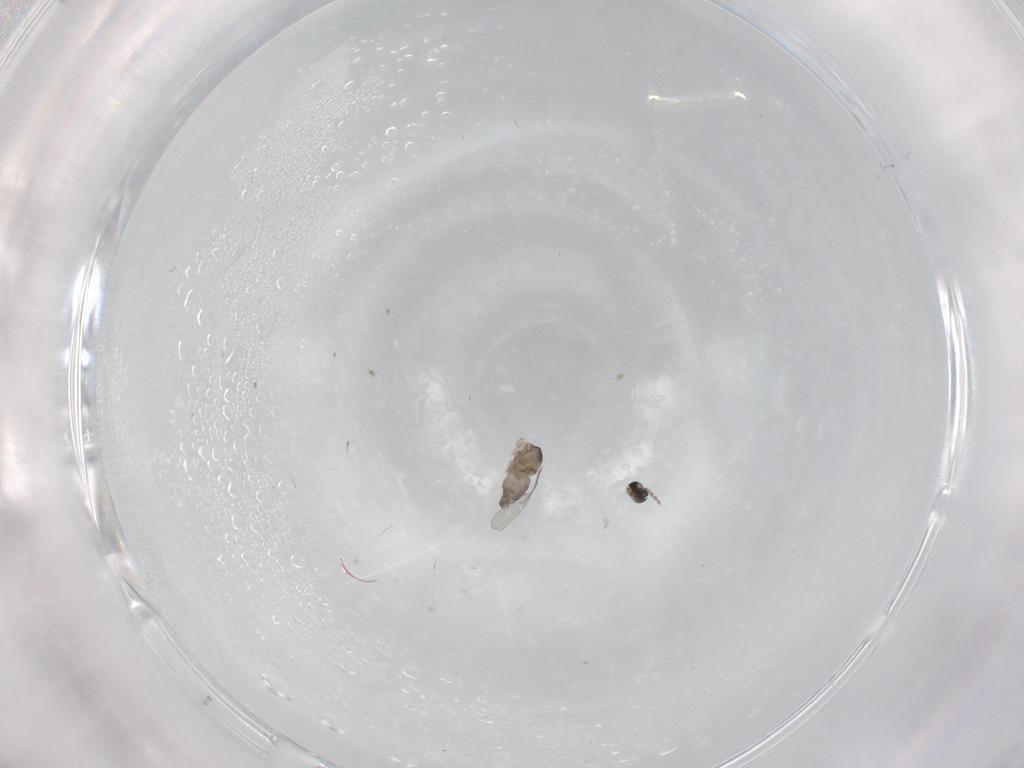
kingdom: Animalia
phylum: Arthropoda
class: Insecta
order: Diptera
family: Cecidomyiidae
